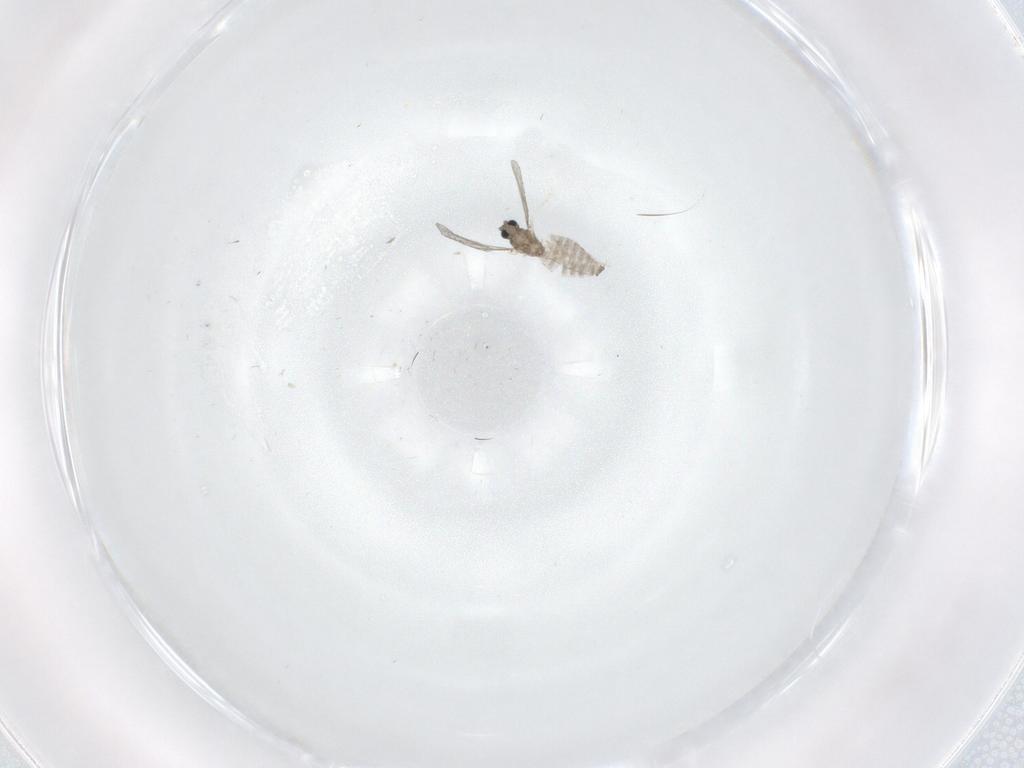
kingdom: Animalia
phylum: Arthropoda
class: Insecta
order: Diptera
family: Cecidomyiidae
